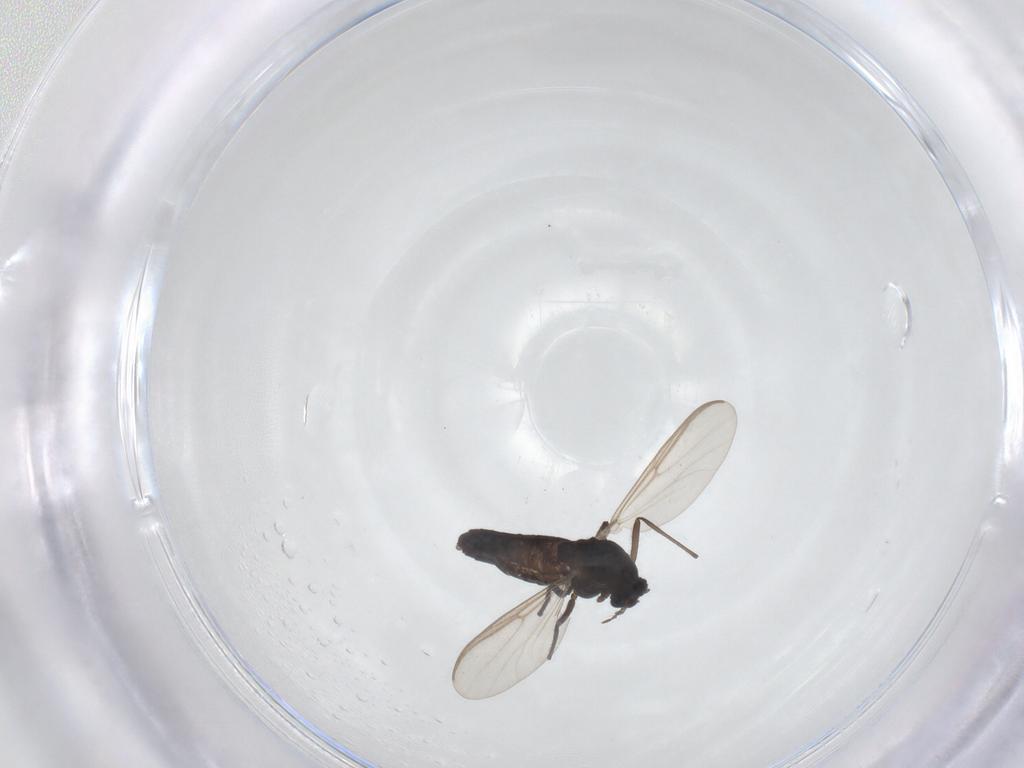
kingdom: Animalia
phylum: Arthropoda
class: Insecta
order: Diptera
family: Chironomidae
